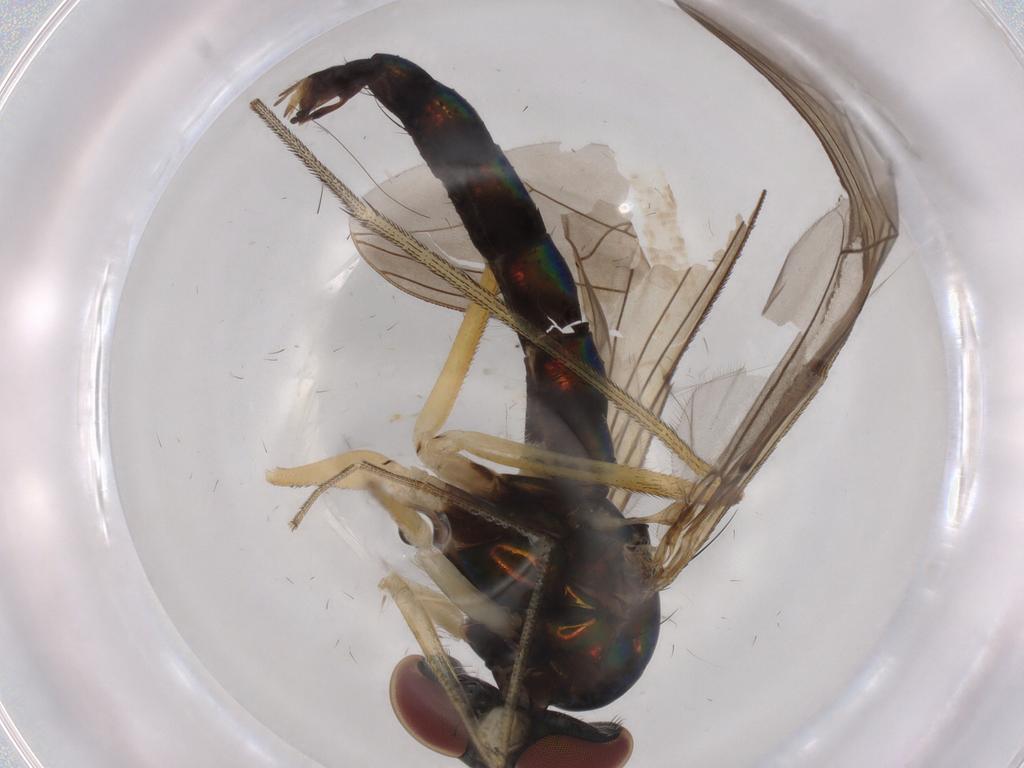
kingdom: Animalia
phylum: Arthropoda
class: Insecta
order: Diptera
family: Dolichopodidae
